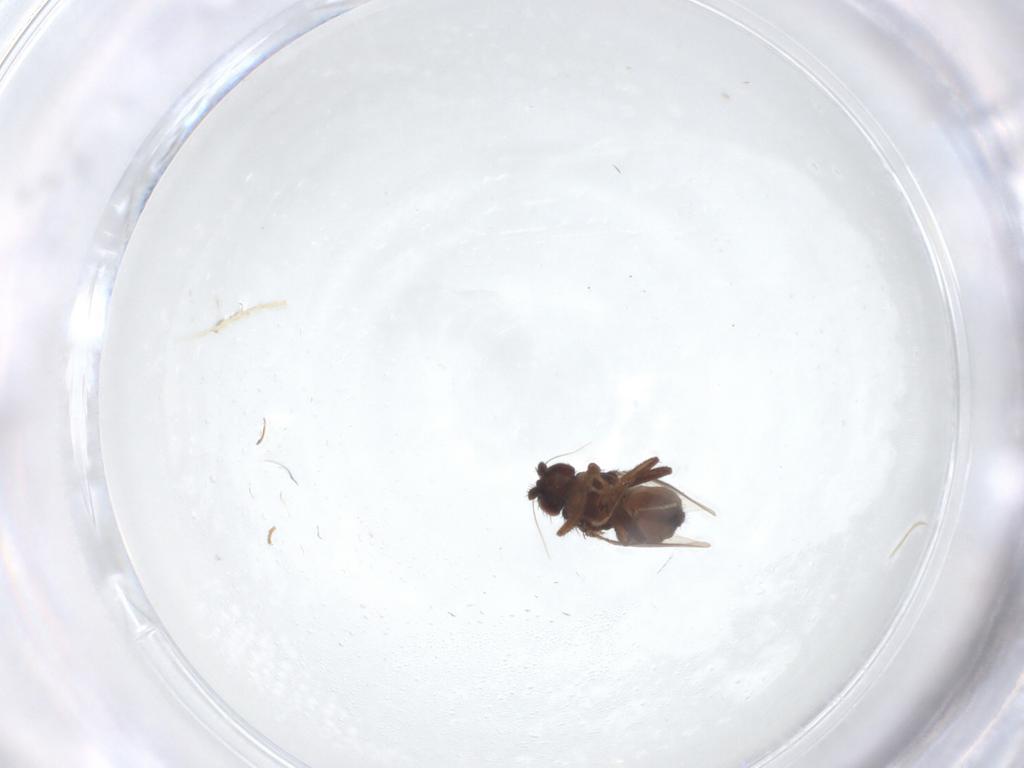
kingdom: Animalia
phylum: Arthropoda
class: Insecta
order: Diptera
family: Sphaeroceridae
